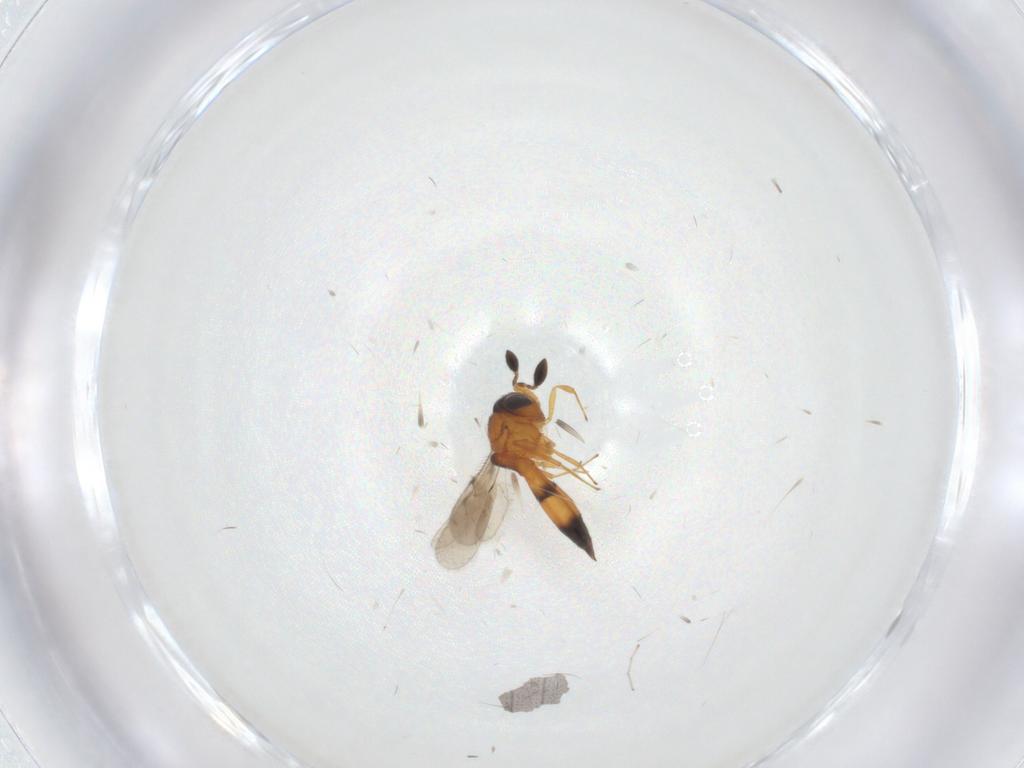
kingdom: Animalia
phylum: Arthropoda
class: Insecta
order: Hymenoptera
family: Scelionidae
